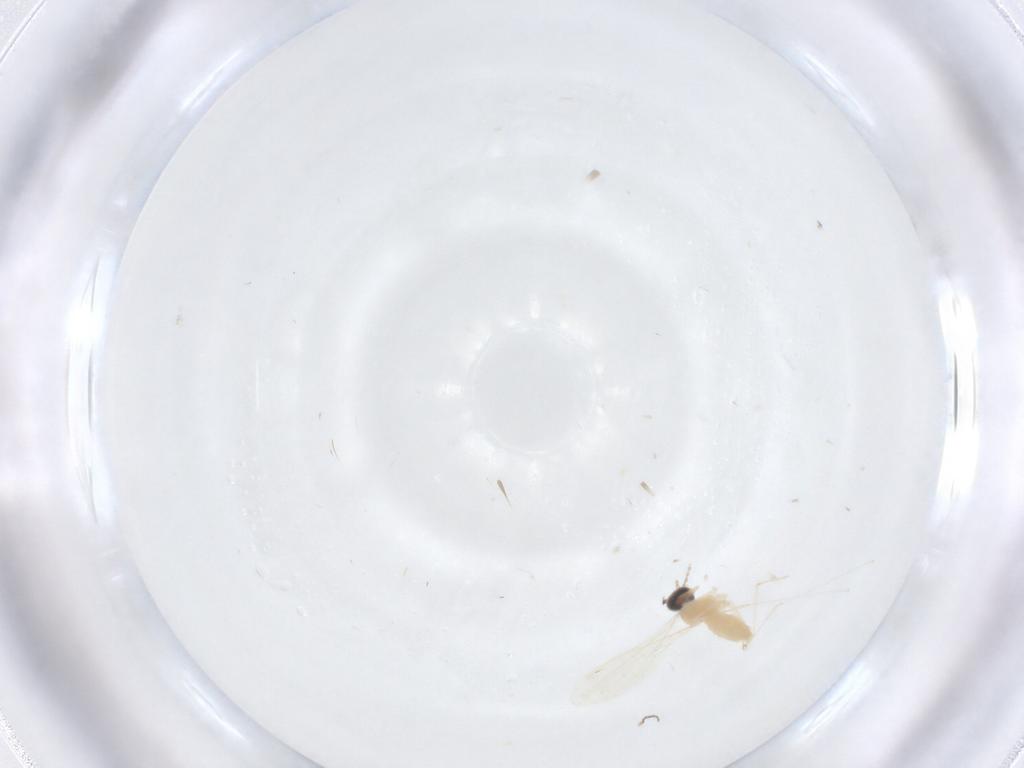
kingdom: Animalia
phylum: Arthropoda
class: Insecta
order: Diptera
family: Cecidomyiidae
